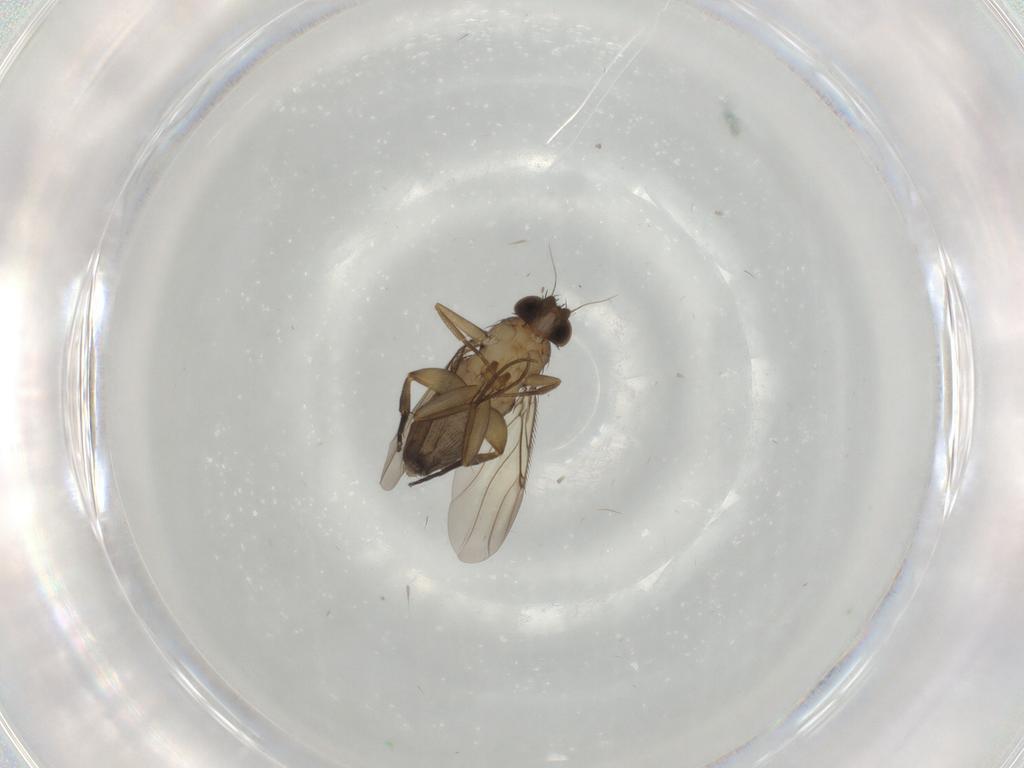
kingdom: Animalia
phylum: Arthropoda
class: Insecta
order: Diptera
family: Phoridae
